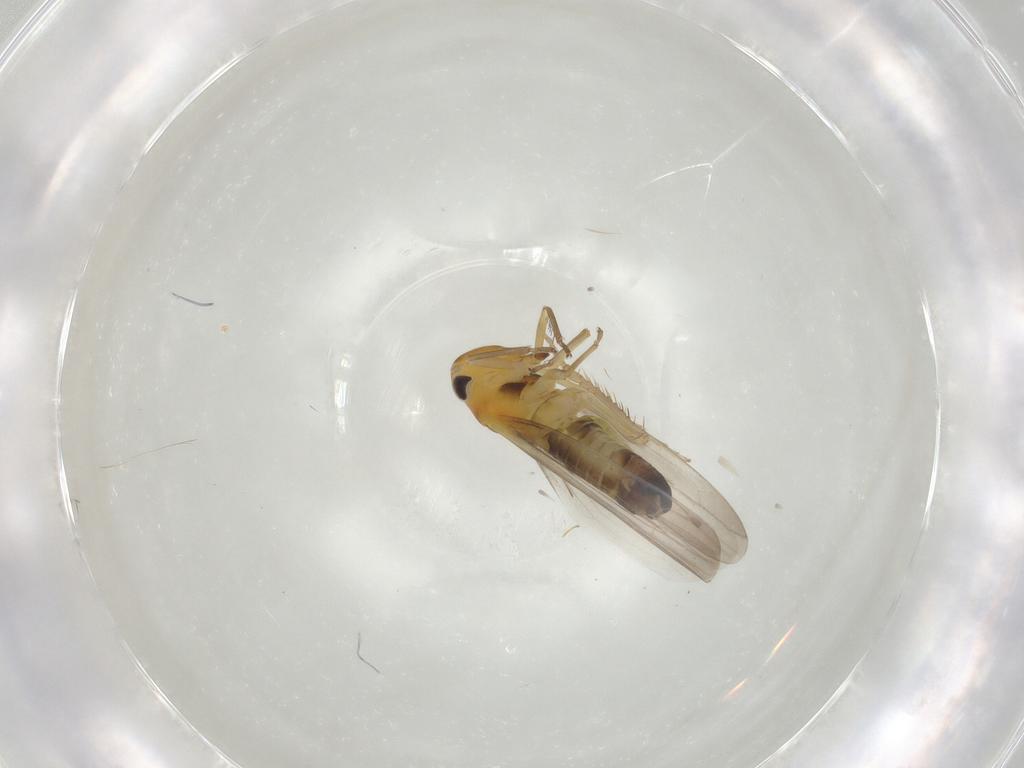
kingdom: Animalia
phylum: Arthropoda
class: Insecta
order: Hemiptera
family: Cicadellidae
